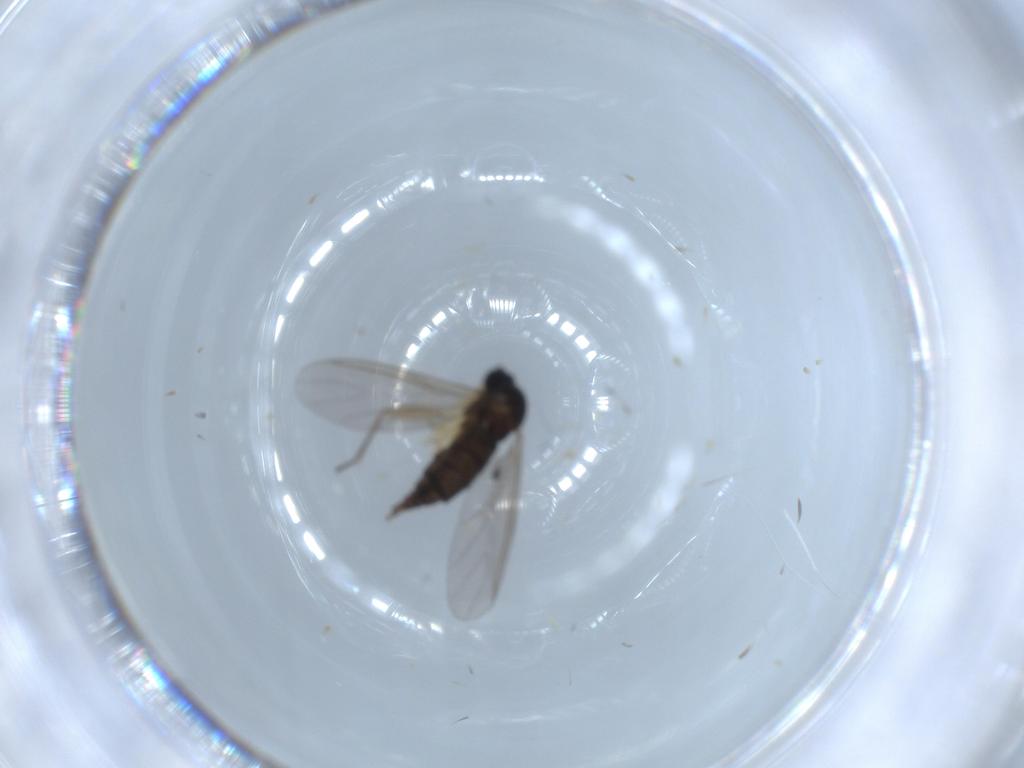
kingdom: Animalia
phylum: Arthropoda
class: Insecta
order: Diptera
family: Sciaridae
